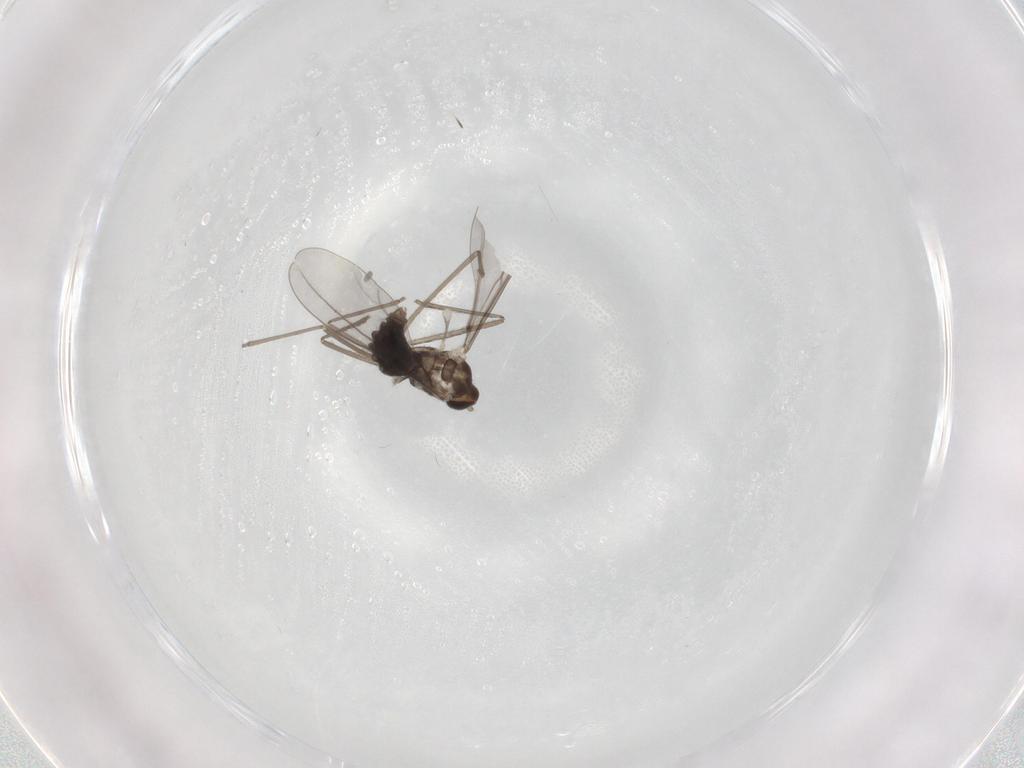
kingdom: Animalia
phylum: Arthropoda
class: Insecta
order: Diptera
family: Cecidomyiidae
